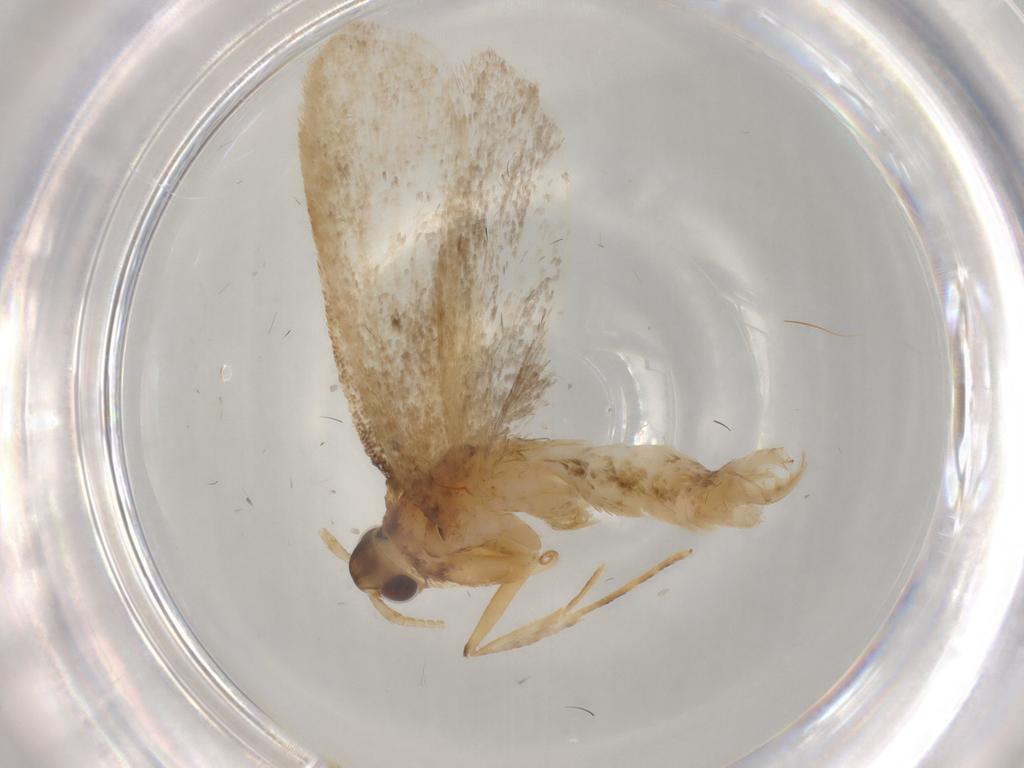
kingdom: Animalia
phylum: Arthropoda
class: Insecta
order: Lepidoptera
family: Lecithoceridae
